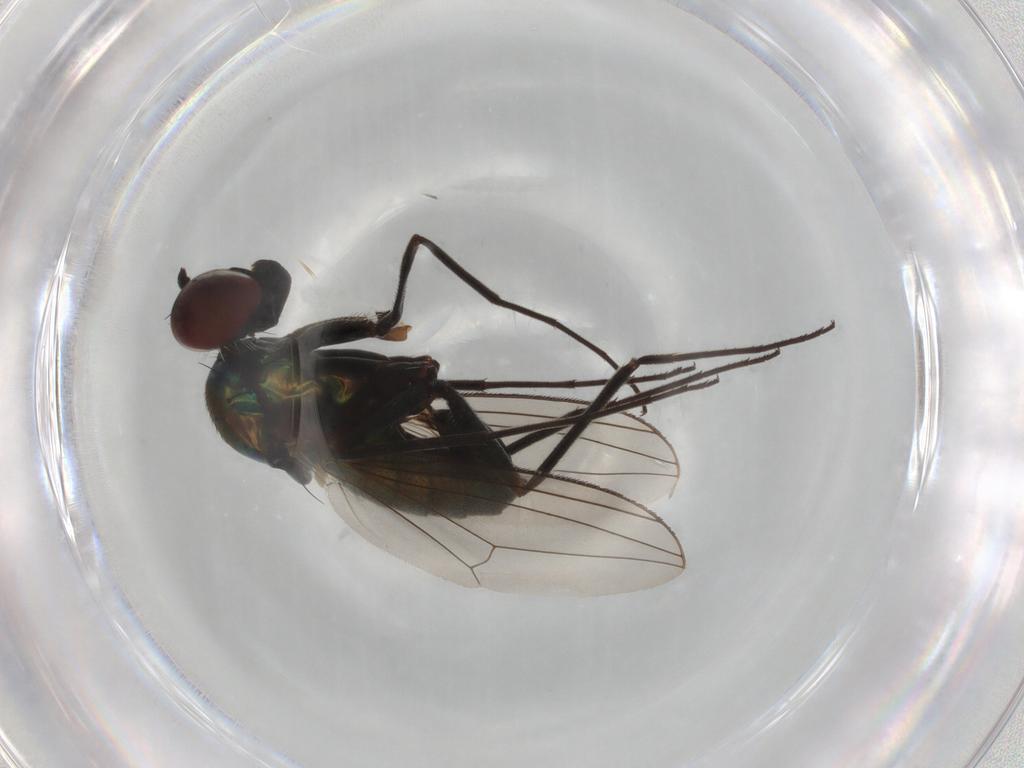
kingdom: Animalia
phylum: Arthropoda
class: Insecta
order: Diptera
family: Dolichopodidae
